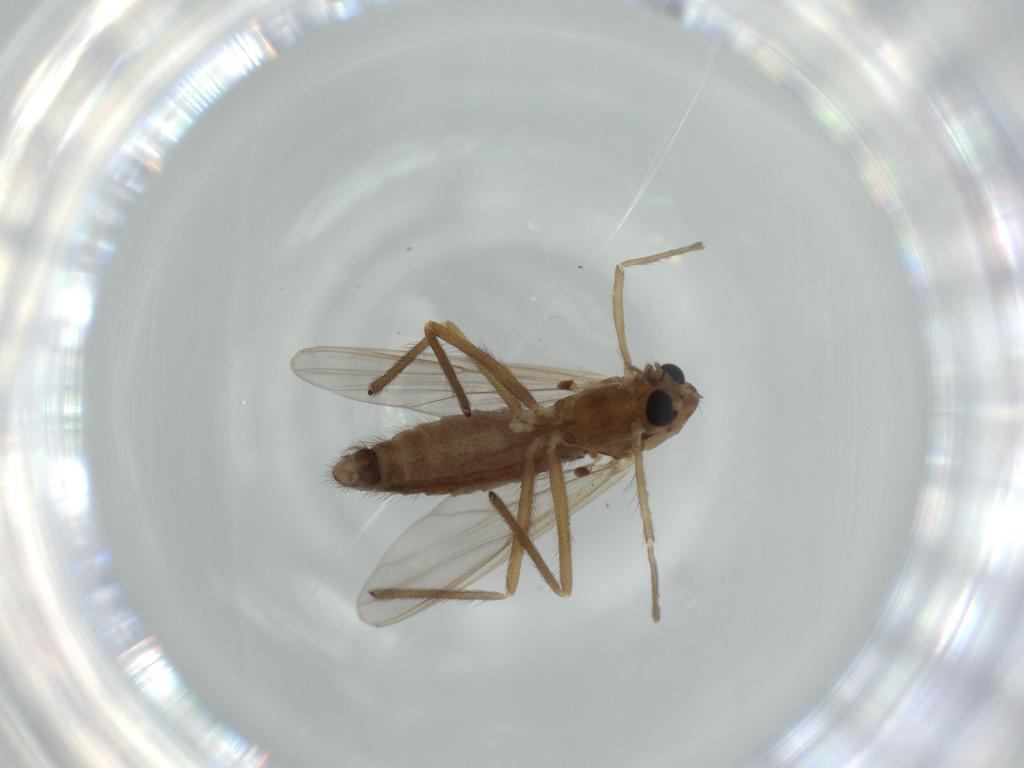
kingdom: Animalia
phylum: Arthropoda
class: Insecta
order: Diptera
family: Chironomidae
